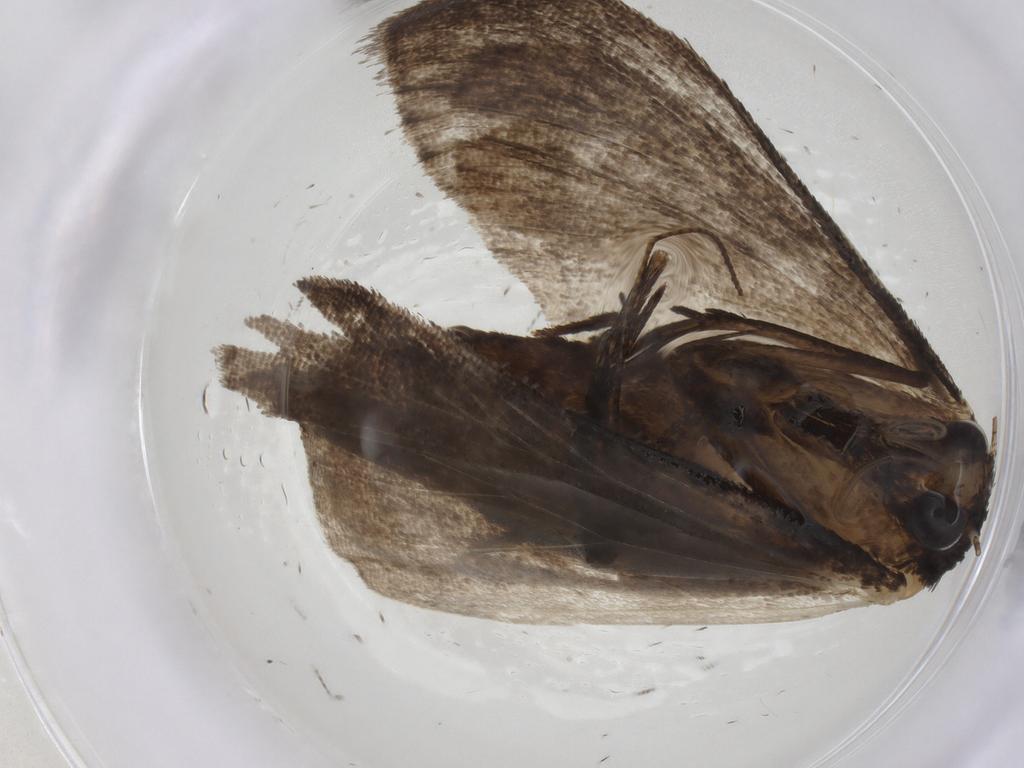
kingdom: Animalia
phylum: Arthropoda
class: Insecta
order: Lepidoptera
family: Erebidae
